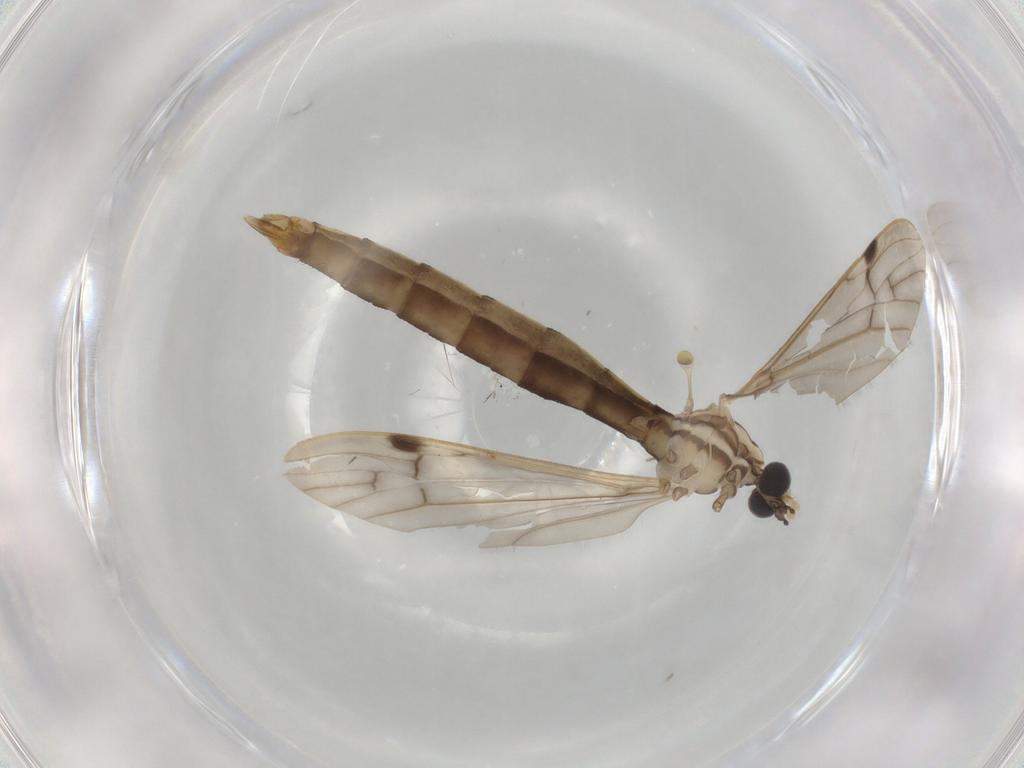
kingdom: Animalia
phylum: Arthropoda
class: Insecta
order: Diptera
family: Limoniidae
